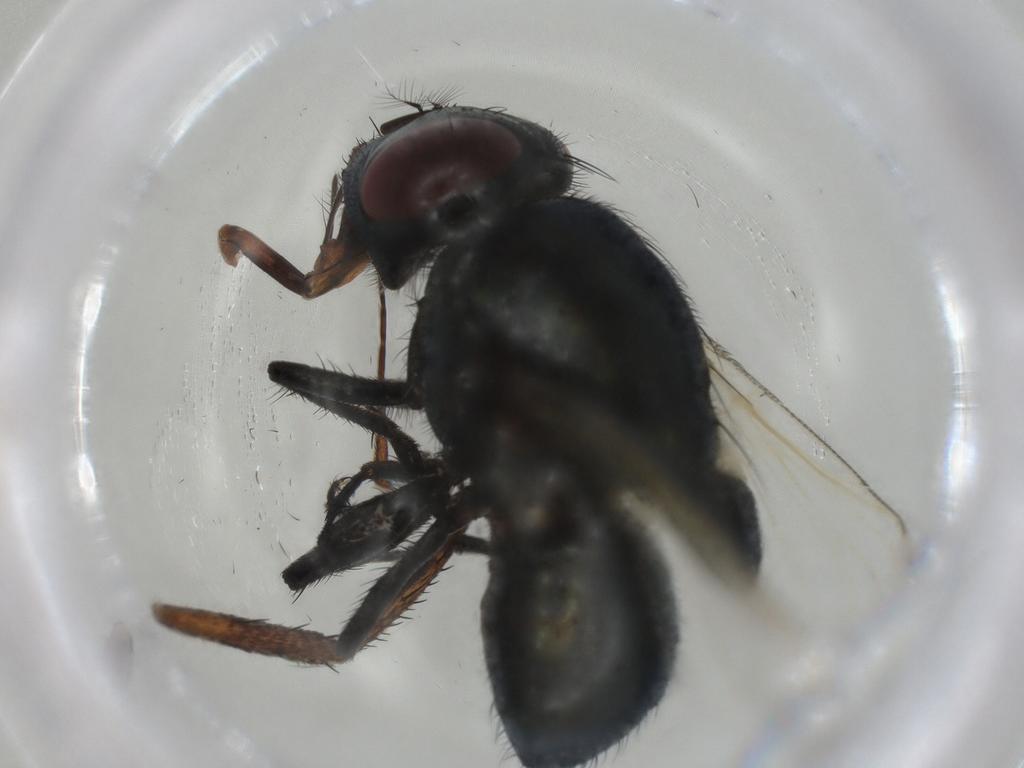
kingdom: Animalia
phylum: Arthropoda
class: Insecta
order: Diptera
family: Muscidae
